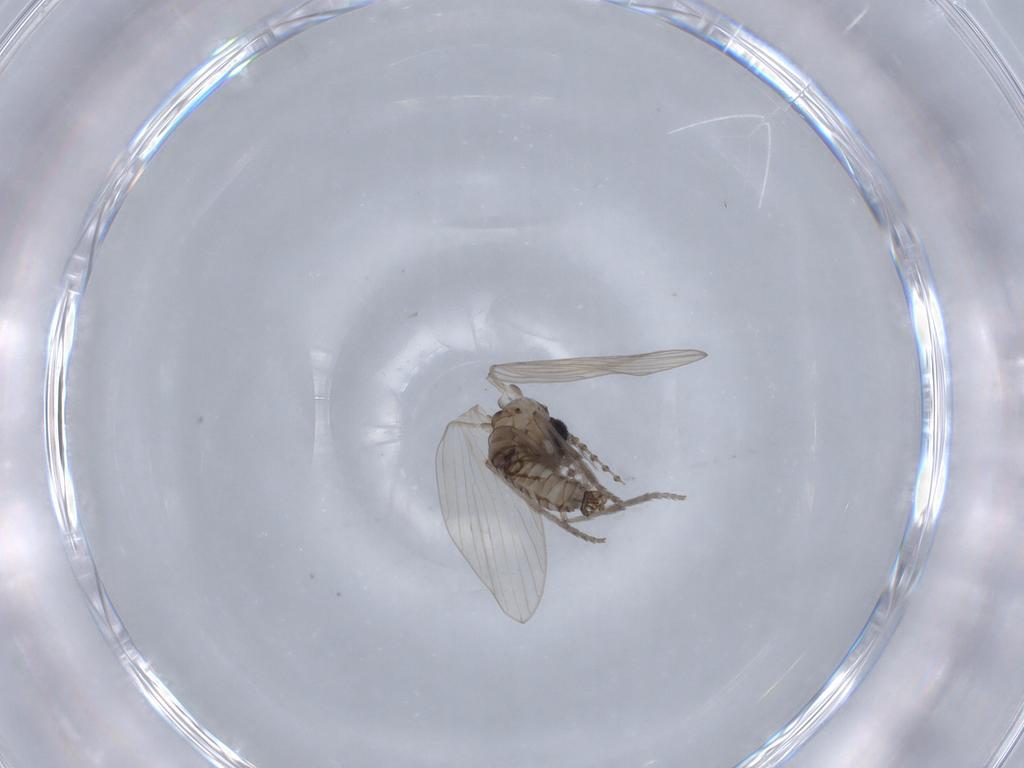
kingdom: Animalia
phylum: Arthropoda
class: Insecta
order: Diptera
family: Psychodidae
